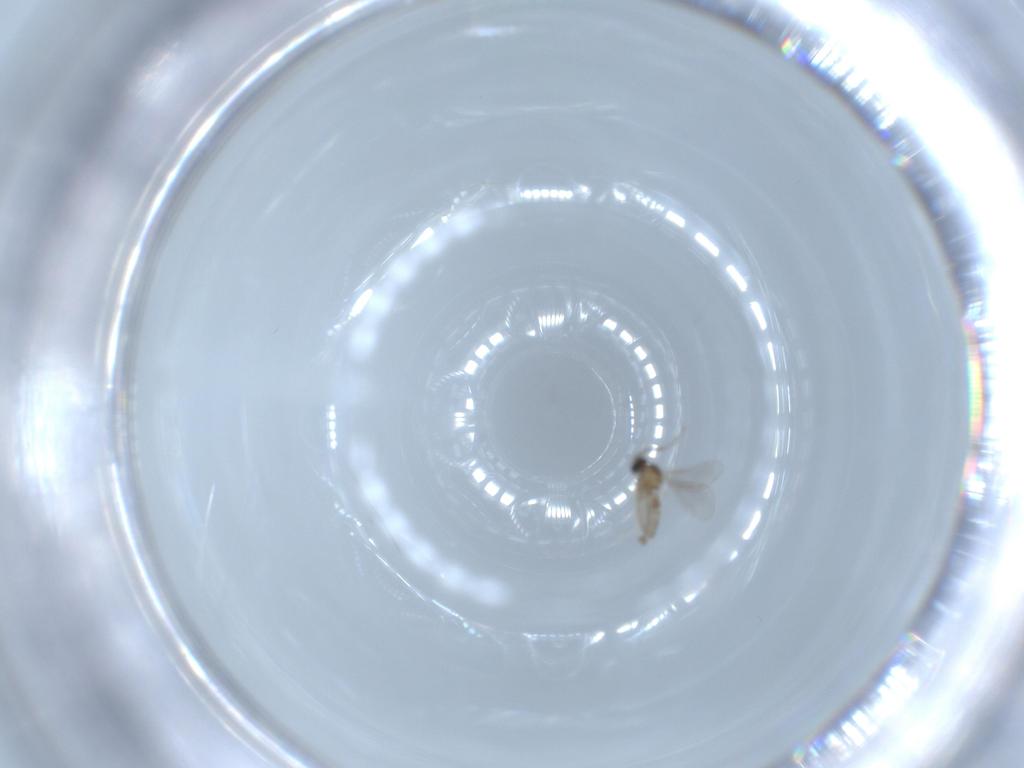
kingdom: Animalia
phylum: Arthropoda
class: Insecta
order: Diptera
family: Cecidomyiidae
